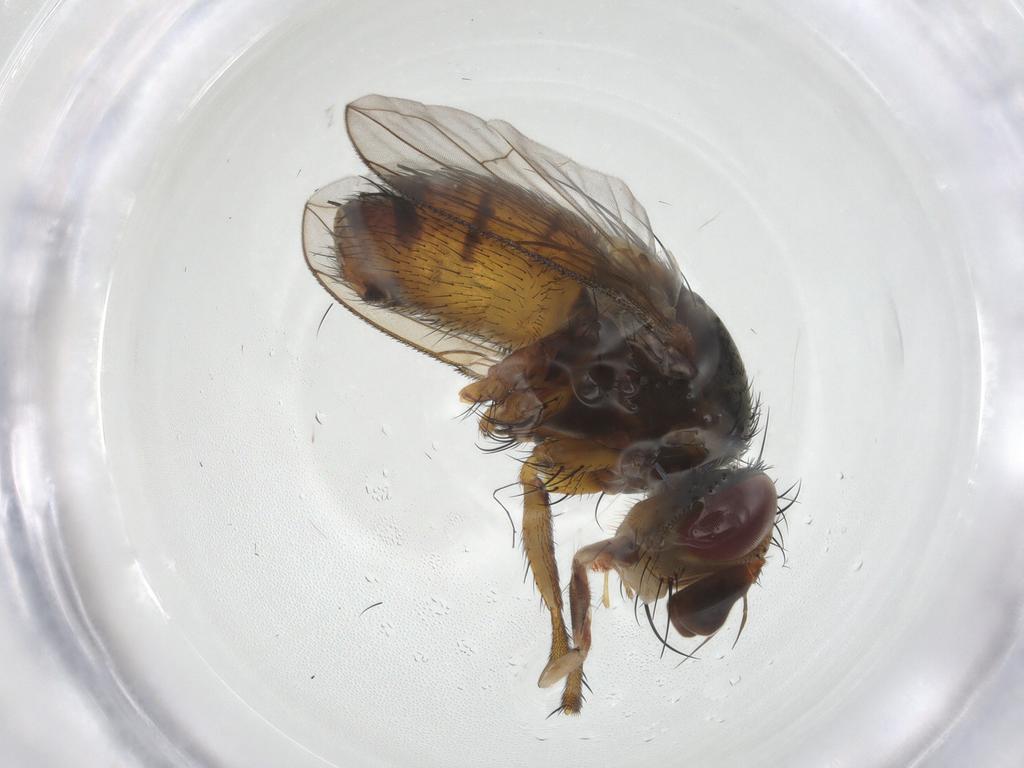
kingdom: Animalia
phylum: Arthropoda
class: Insecta
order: Diptera
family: Tachinidae
